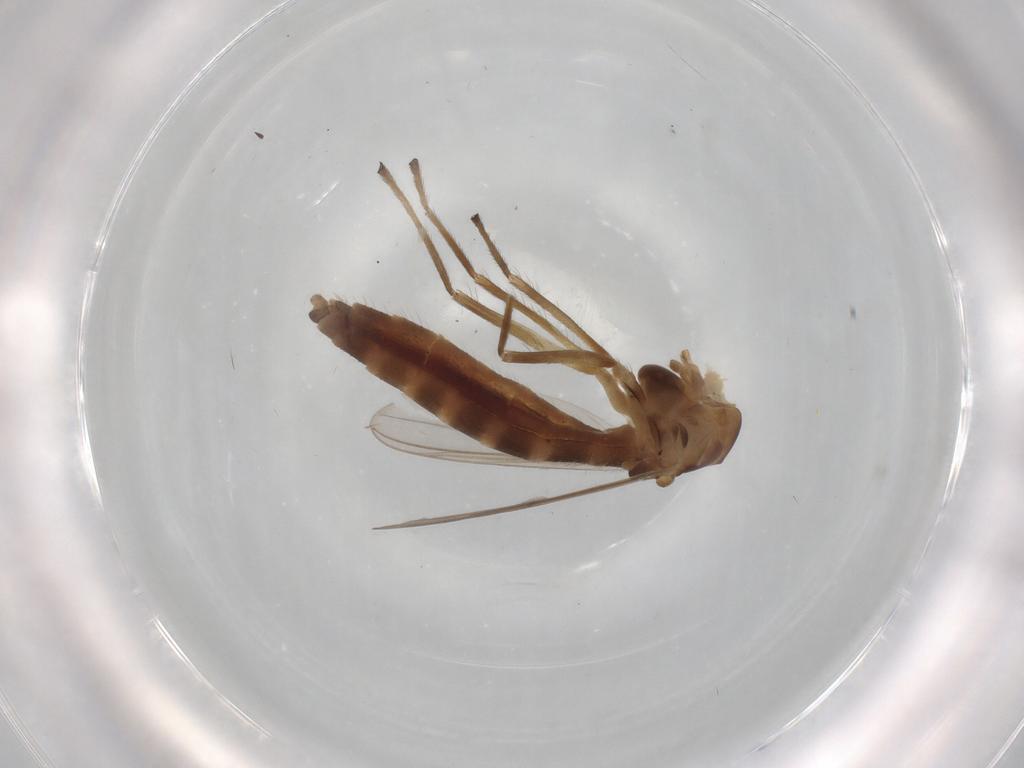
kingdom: Animalia
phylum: Arthropoda
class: Insecta
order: Diptera
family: Chironomidae
